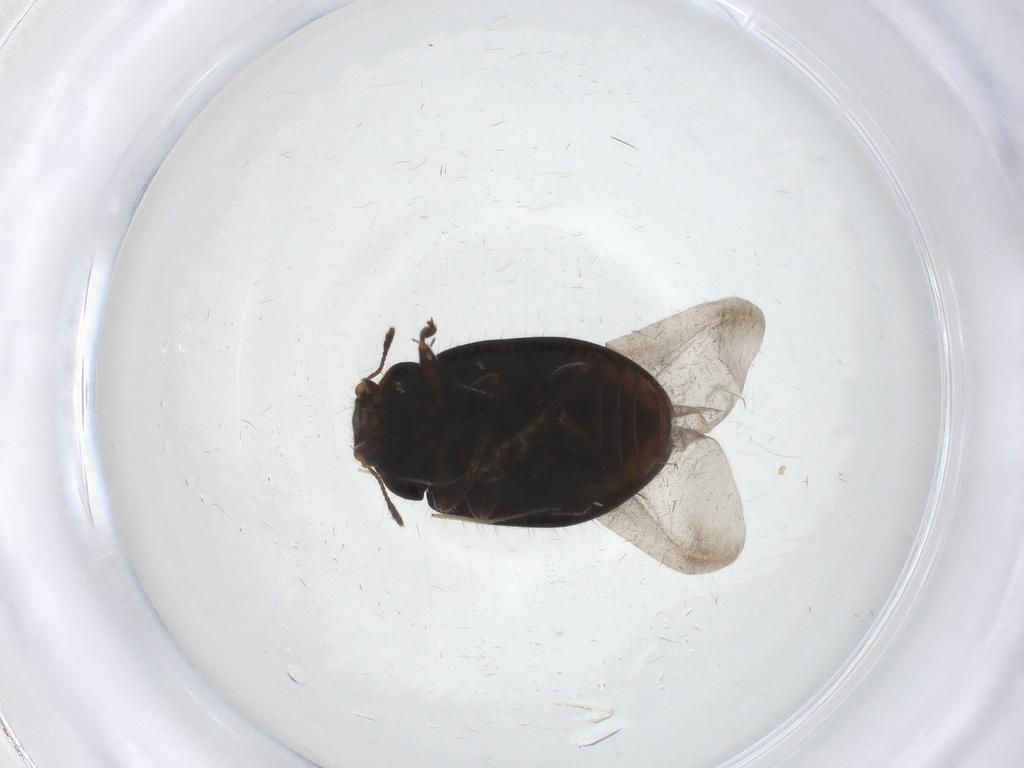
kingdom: Animalia
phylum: Arthropoda
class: Insecta
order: Coleoptera
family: Coccinellidae
